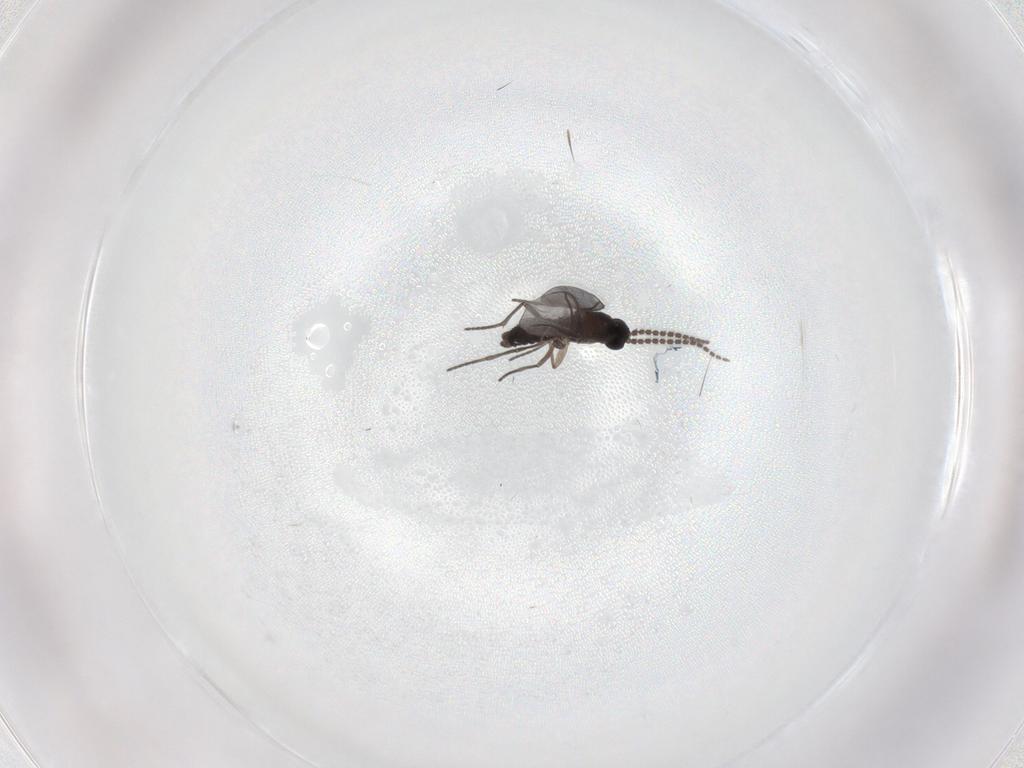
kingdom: Animalia
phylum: Arthropoda
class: Insecta
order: Diptera
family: Chironomidae
